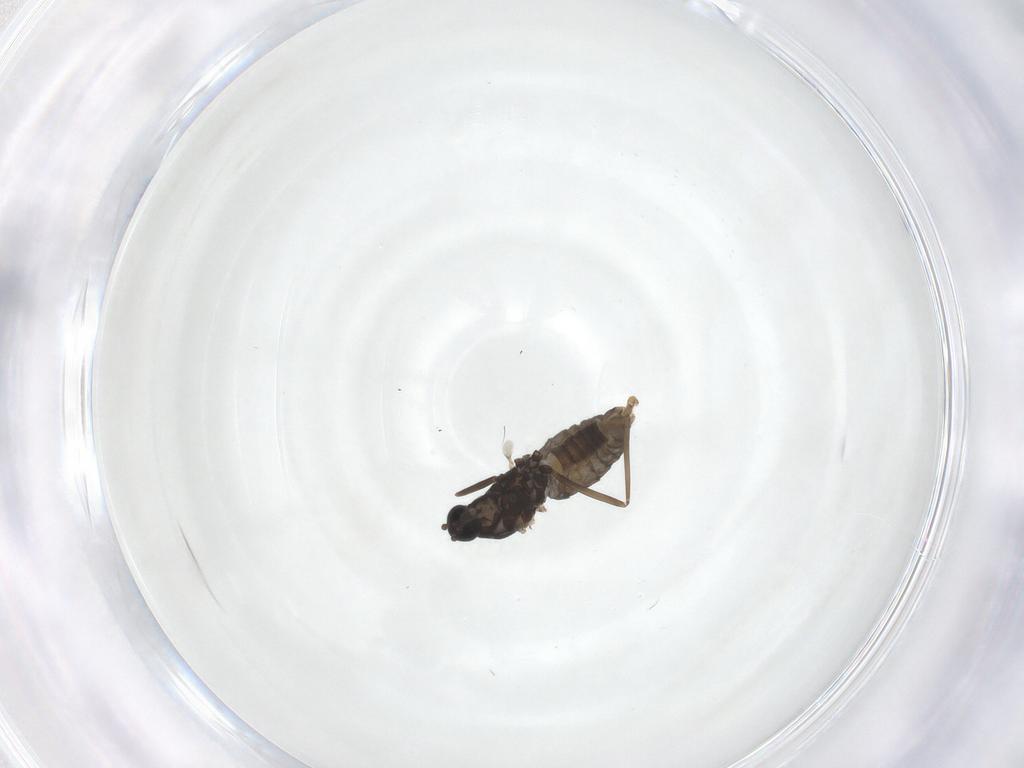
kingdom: Animalia
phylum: Arthropoda
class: Insecta
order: Diptera
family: Cecidomyiidae
